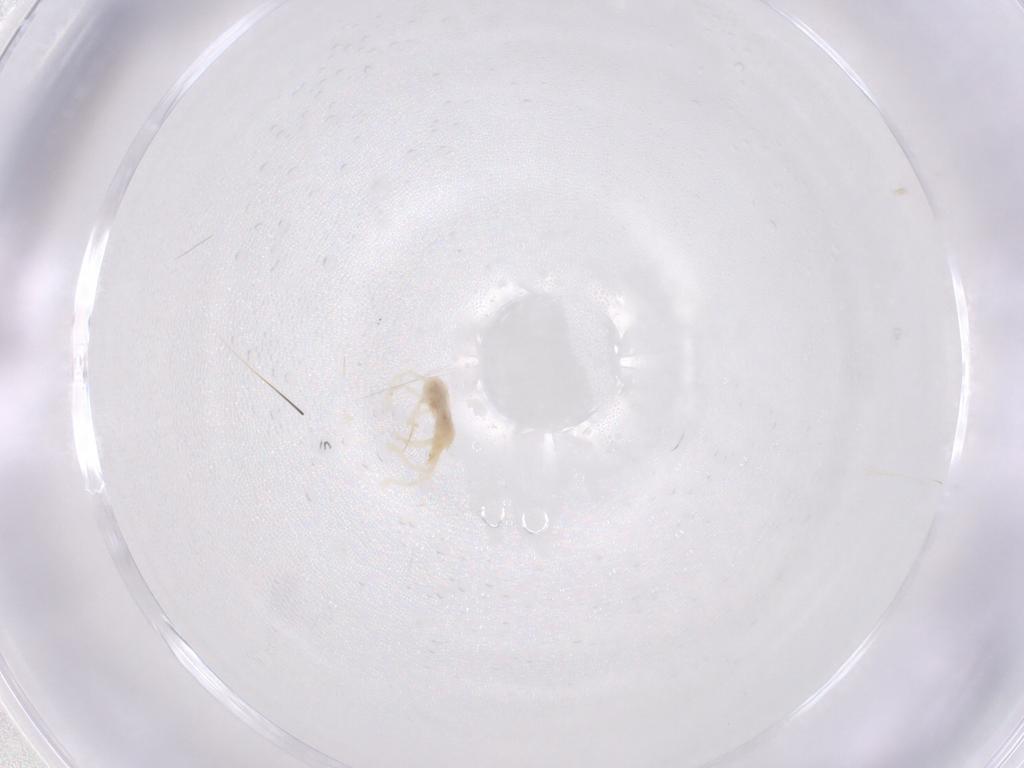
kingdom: Animalia
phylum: Arthropoda
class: Arachnida
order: Trombidiformes
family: Eupodidae
